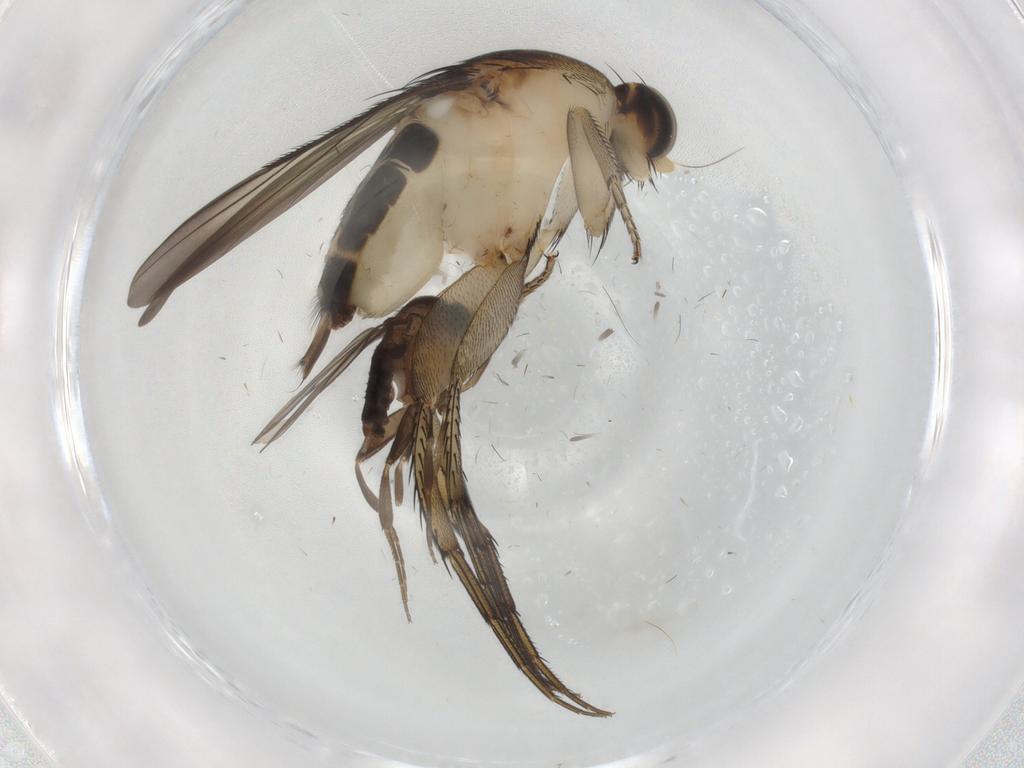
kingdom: Animalia
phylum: Arthropoda
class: Insecta
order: Diptera
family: Phoridae
